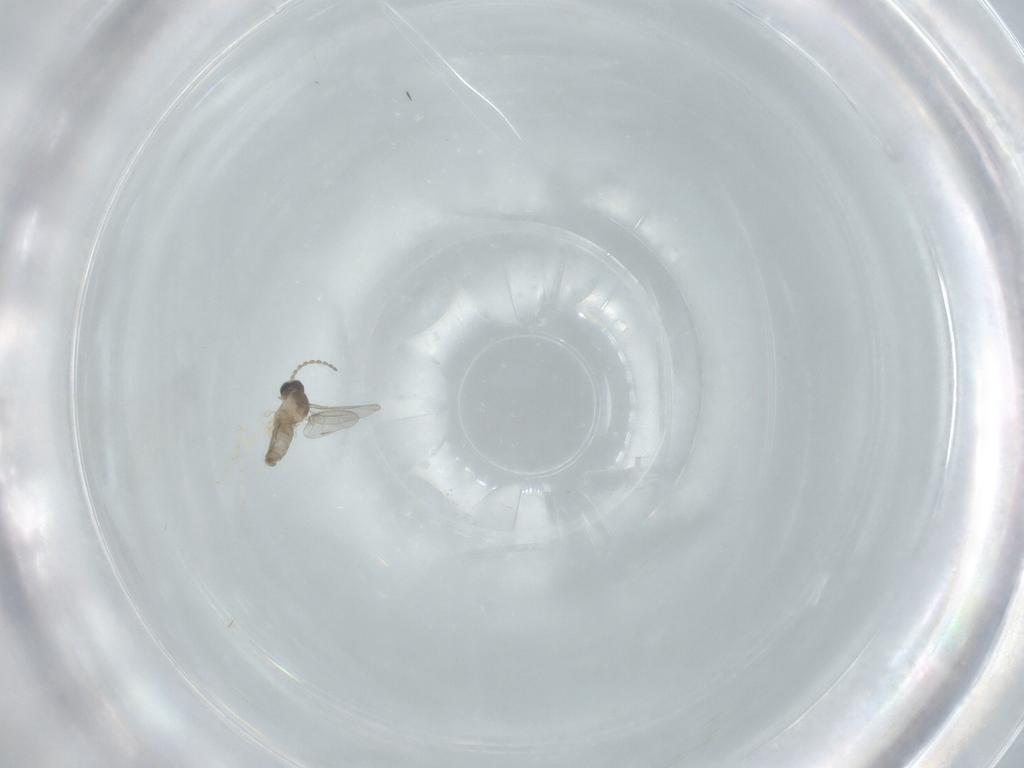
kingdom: Animalia
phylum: Arthropoda
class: Insecta
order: Diptera
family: Cecidomyiidae
